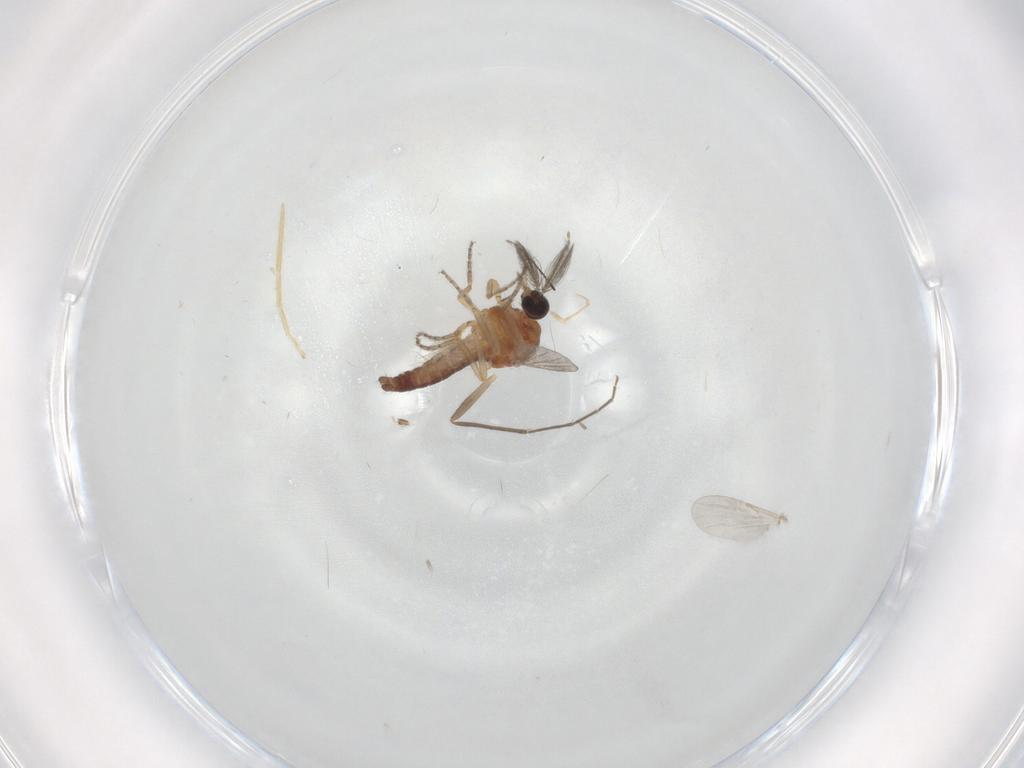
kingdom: Animalia
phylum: Arthropoda
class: Insecta
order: Diptera
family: Ceratopogonidae
